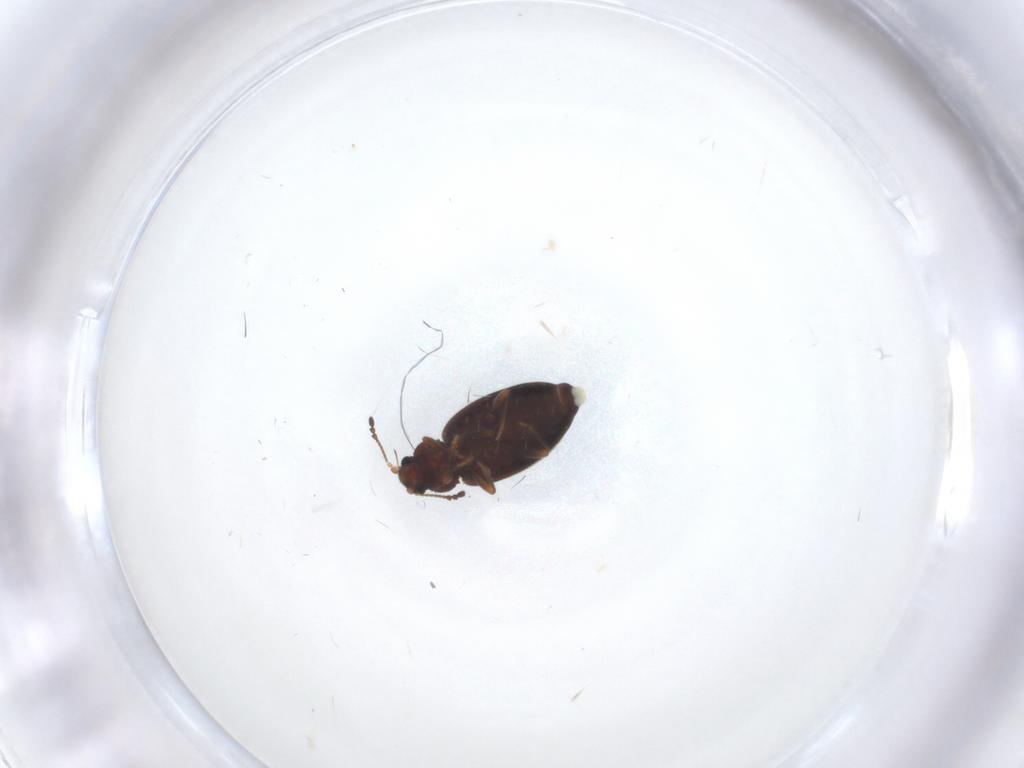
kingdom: Animalia
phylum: Arthropoda
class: Insecta
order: Coleoptera
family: Latridiidae
